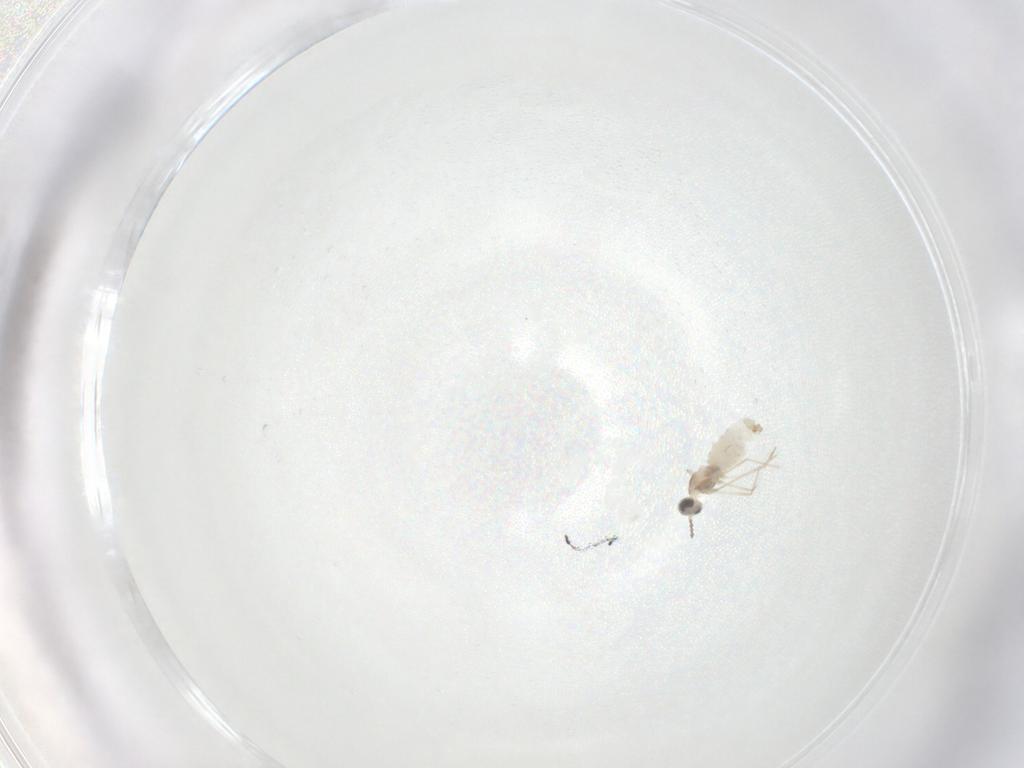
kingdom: Animalia
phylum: Arthropoda
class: Insecta
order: Diptera
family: Cecidomyiidae
